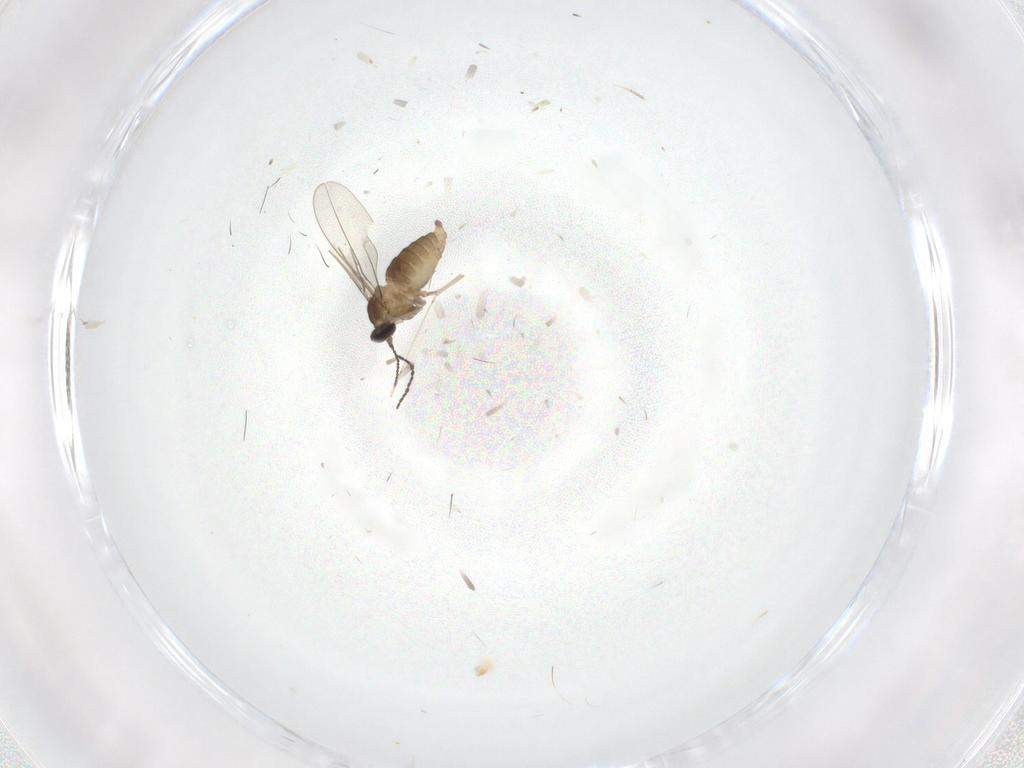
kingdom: Animalia
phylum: Arthropoda
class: Insecta
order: Diptera
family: Cecidomyiidae
